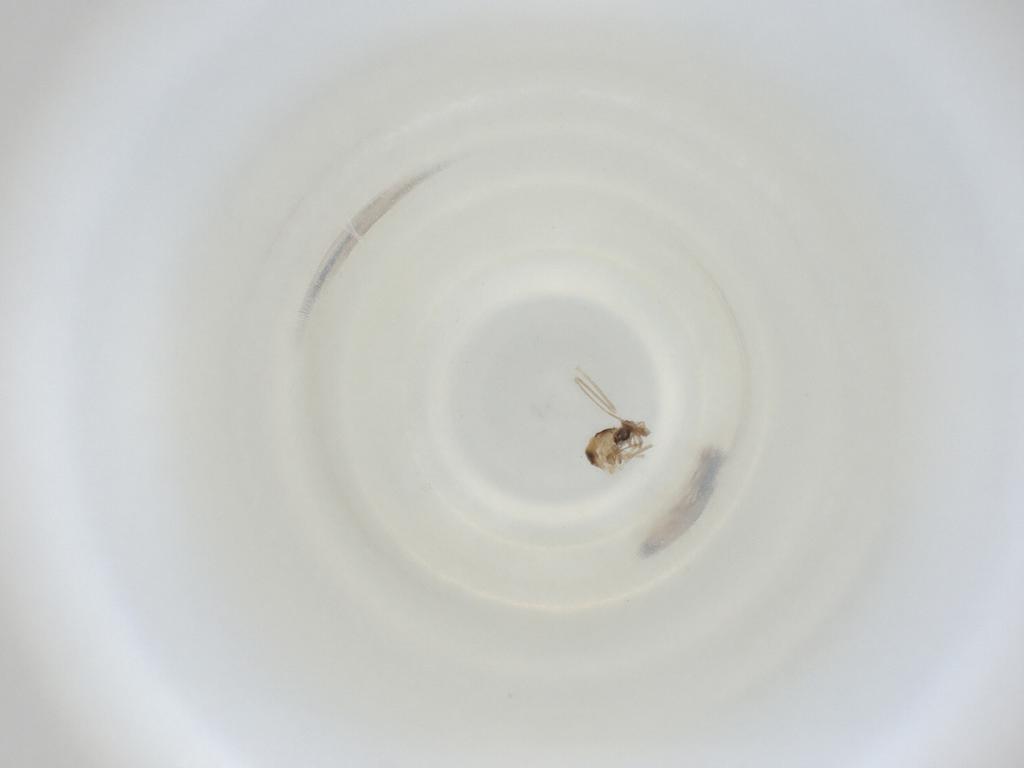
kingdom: Animalia
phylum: Arthropoda
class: Insecta
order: Diptera
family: Cecidomyiidae
